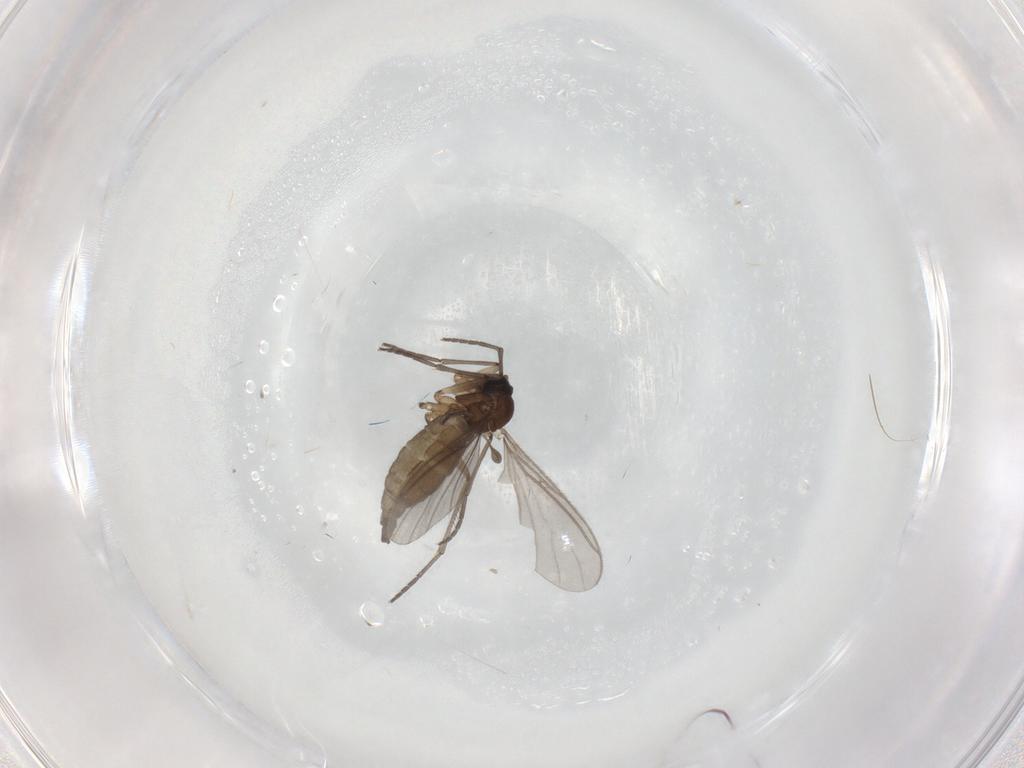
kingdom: Animalia
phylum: Arthropoda
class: Insecta
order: Diptera
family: Sciaridae
